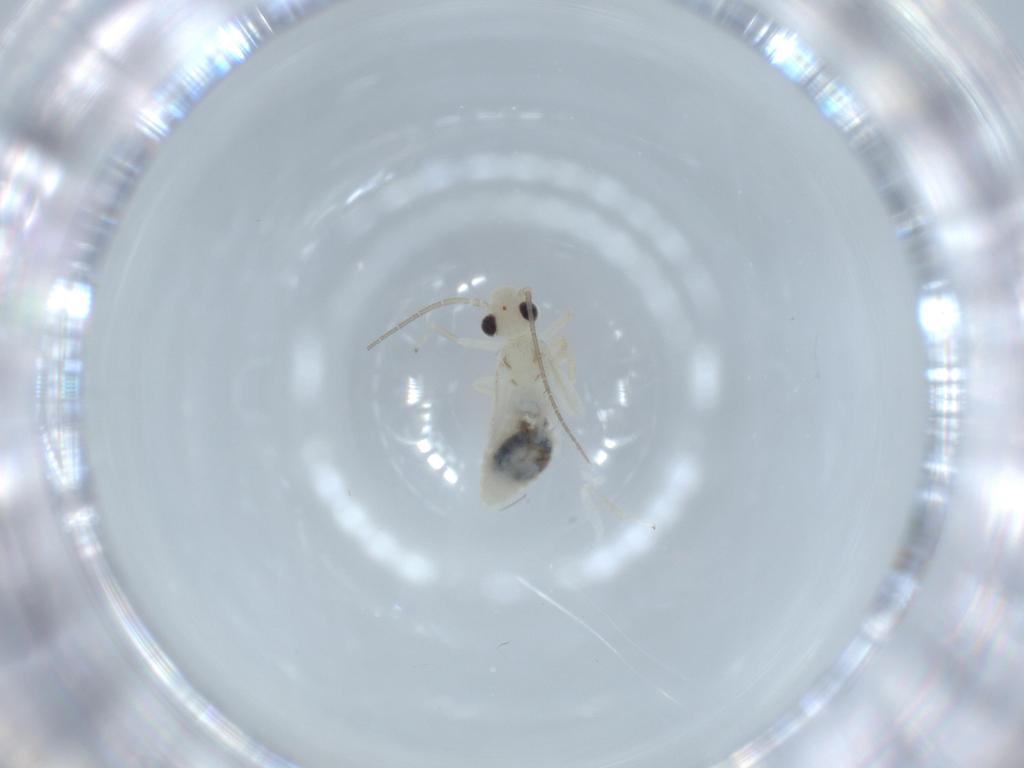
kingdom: Animalia
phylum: Arthropoda
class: Insecta
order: Psocodea
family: Caeciliusidae
